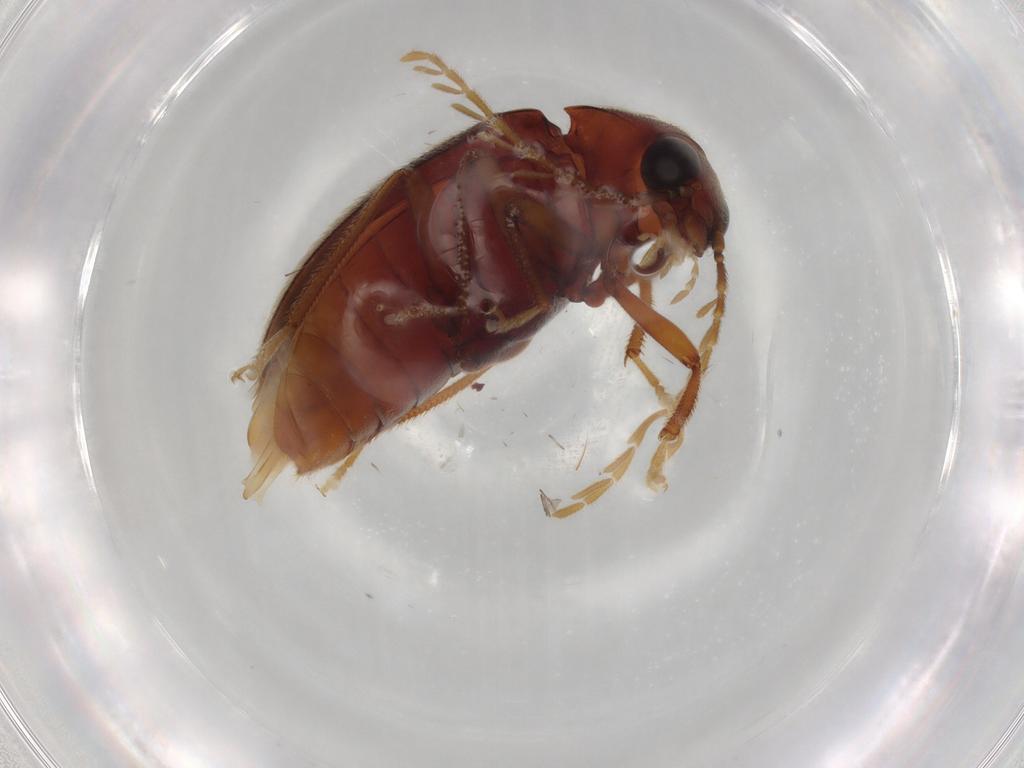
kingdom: Animalia
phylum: Arthropoda
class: Insecta
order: Coleoptera
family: Ptilodactylidae
